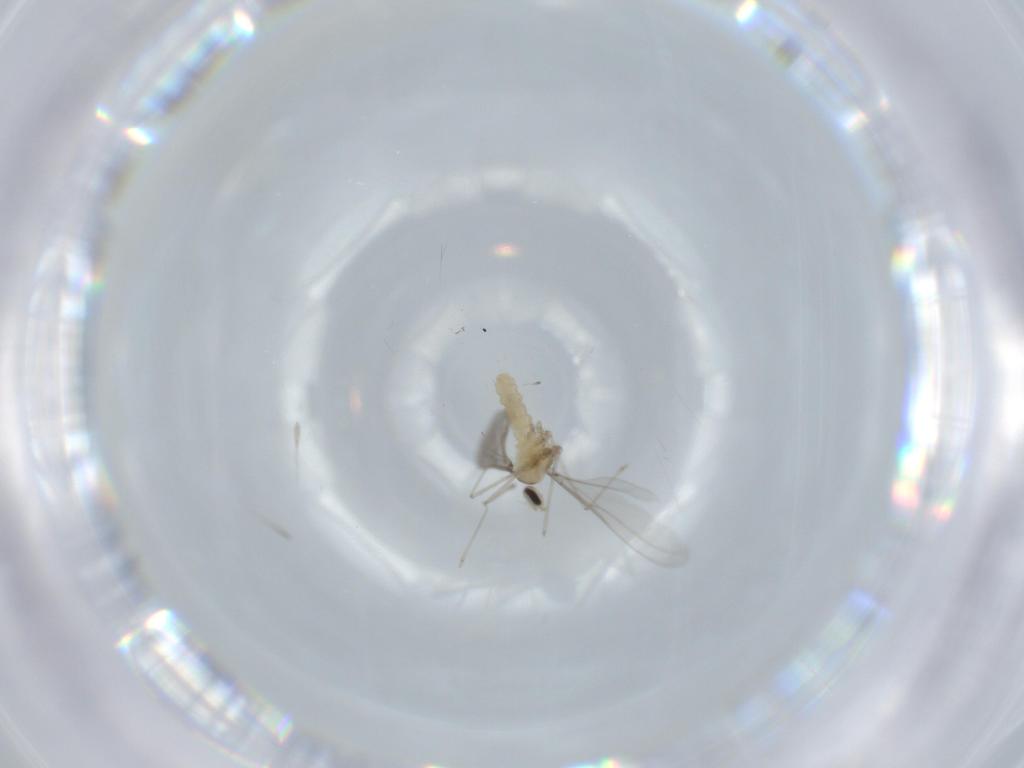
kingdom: Animalia
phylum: Arthropoda
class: Insecta
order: Diptera
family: Cecidomyiidae
